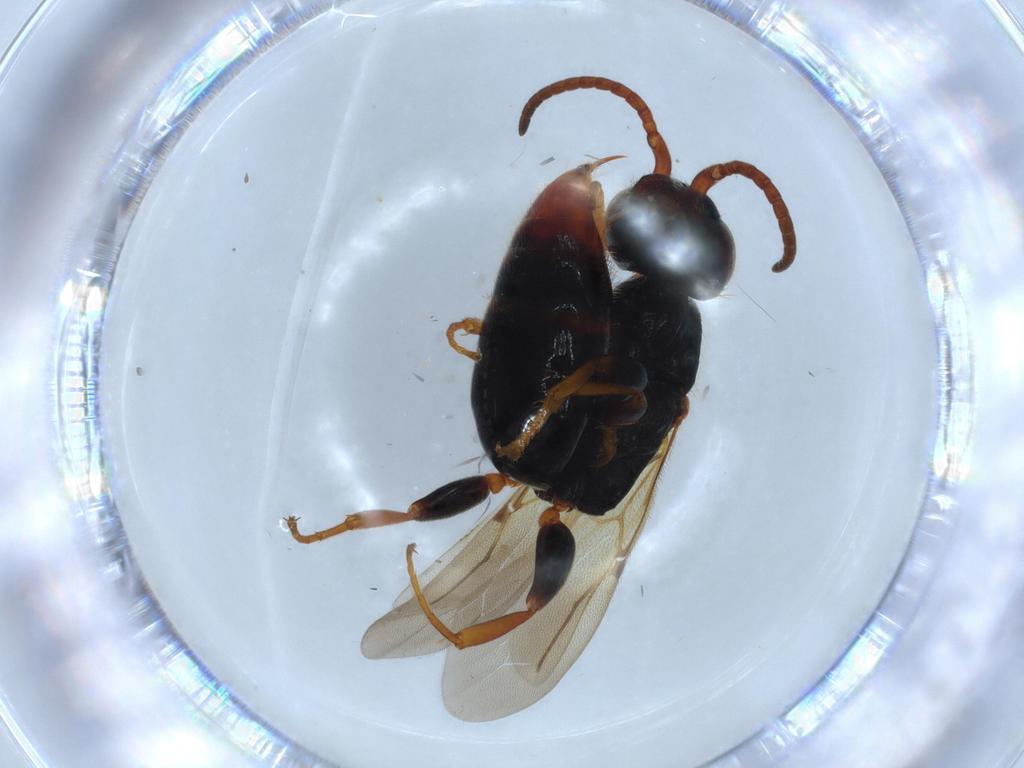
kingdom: Animalia
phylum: Arthropoda
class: Insecta
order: Hymenoptera
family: Bethylidae
